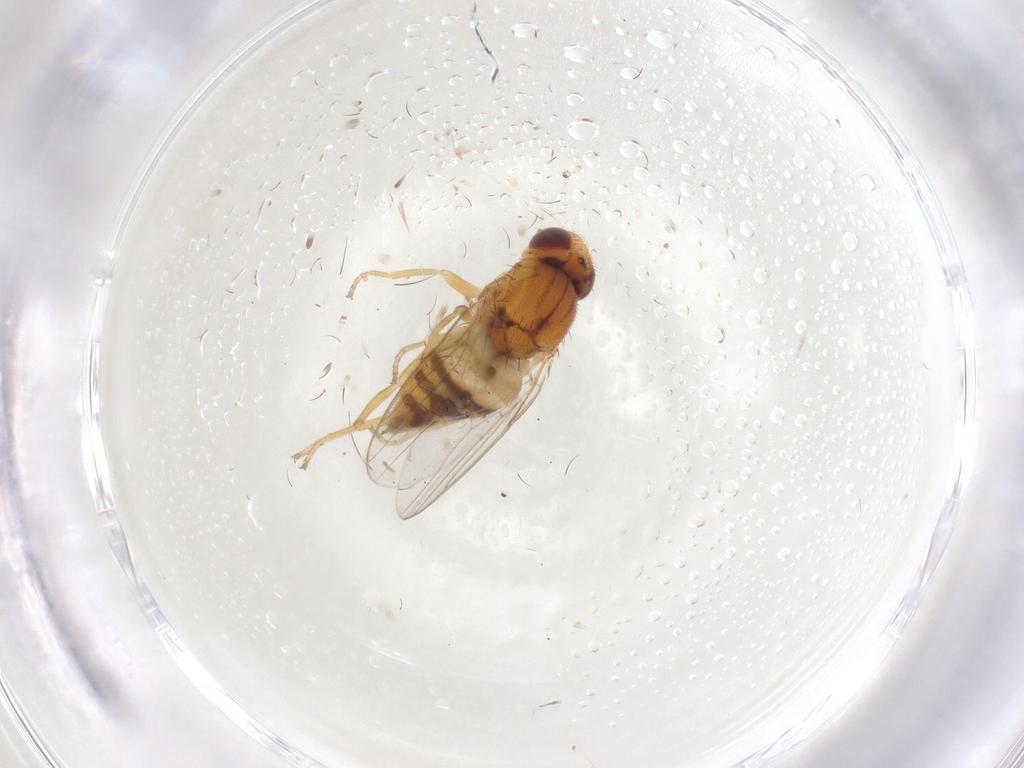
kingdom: Animalia
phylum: Arthropoda
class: Insecta
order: Diptera
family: Chloropidae
